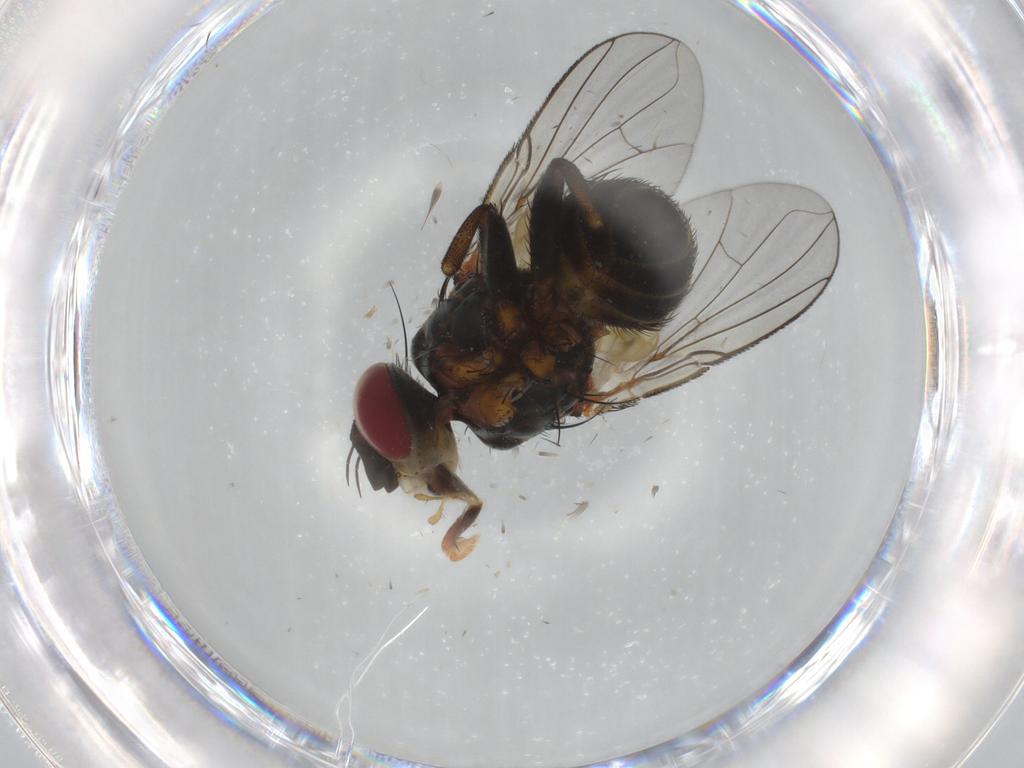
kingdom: Animalia
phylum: Arthropoda
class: Insecta
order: Diptera
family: Tachinidae
